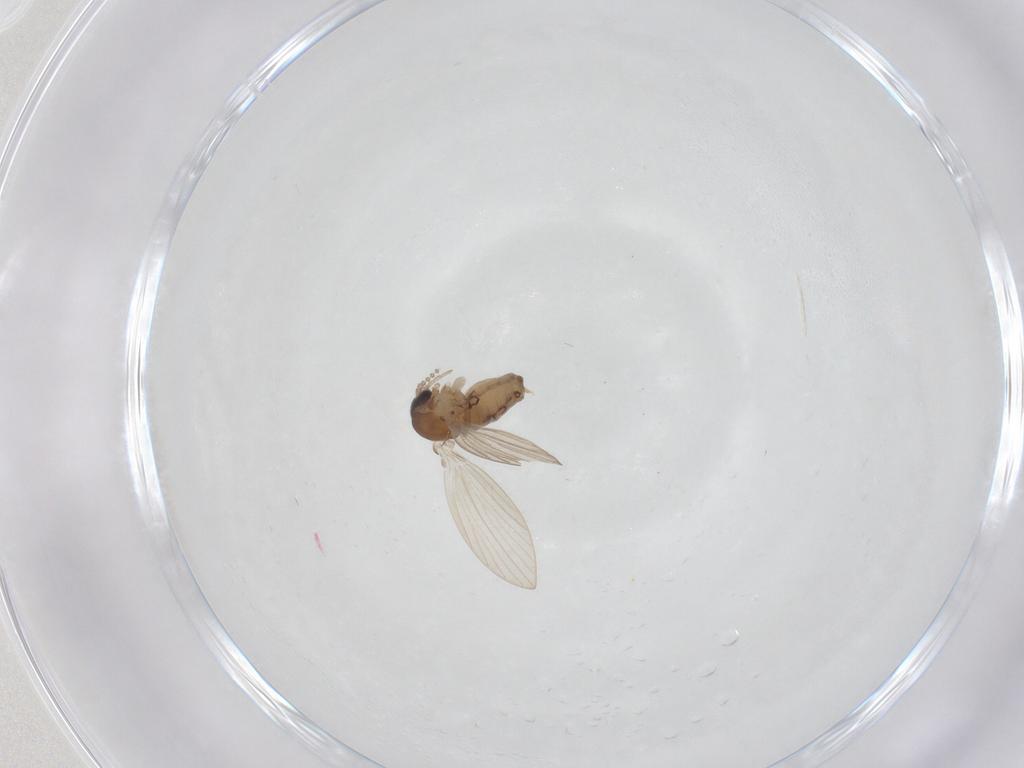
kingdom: Animalia
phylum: Arthropoda
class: Insecta
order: Diptera
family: Psychodidae
